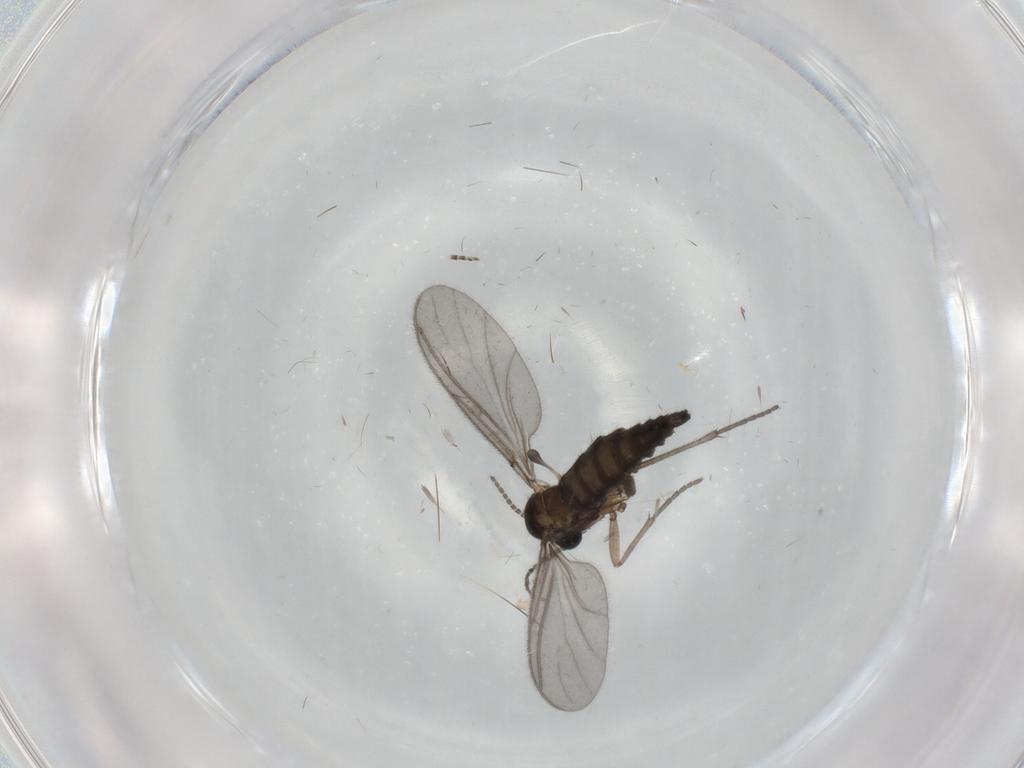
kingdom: Animalia
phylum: Arthropoda
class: Insecta
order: Diptera
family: Sciaridae
